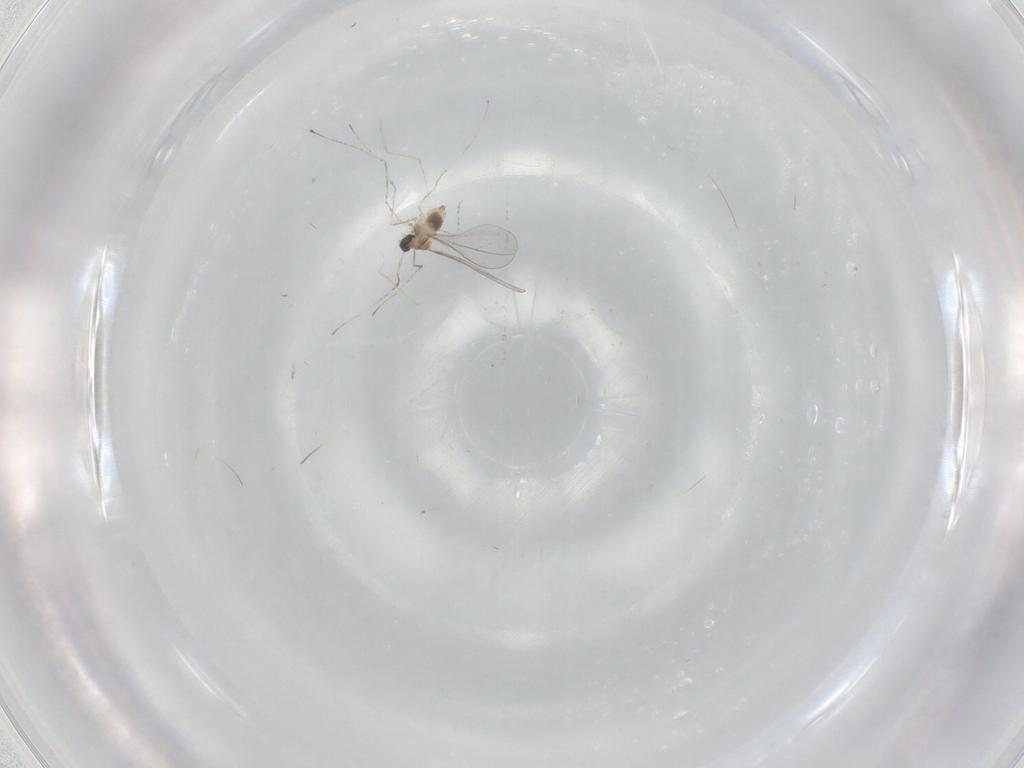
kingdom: Animalia
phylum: Arthropoda
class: Insecta
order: Diptera
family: Cecidomyiidae
